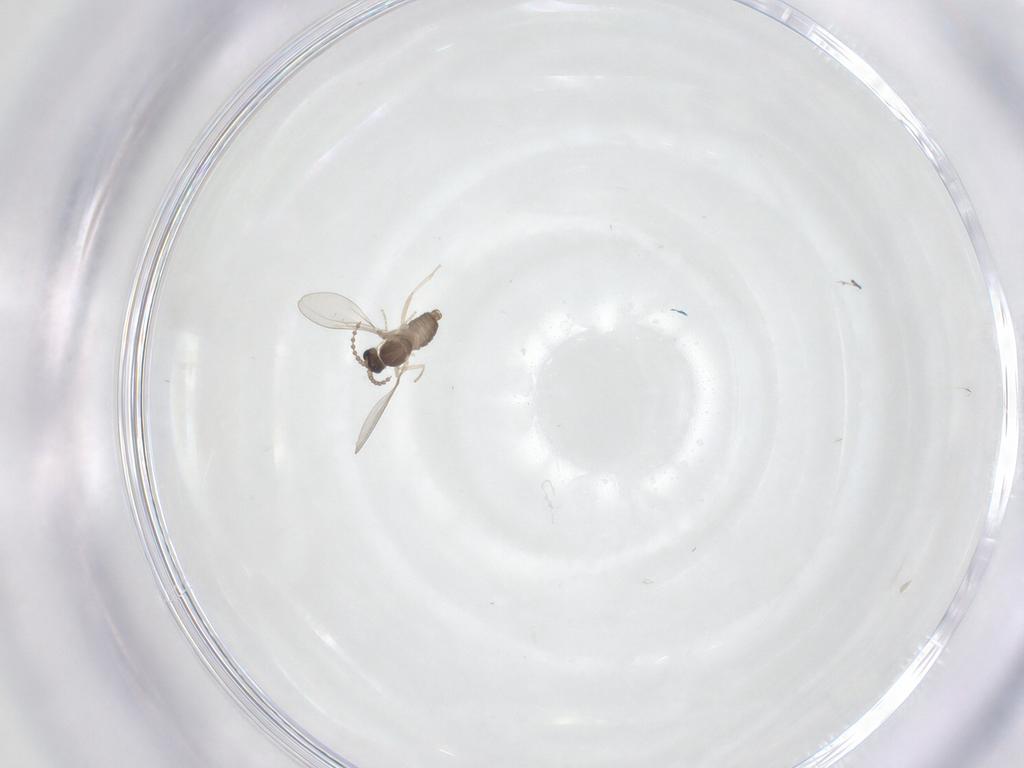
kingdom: Animalia
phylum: Arthropoda
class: Insecta
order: Diptera
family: Cecidomyiidae
